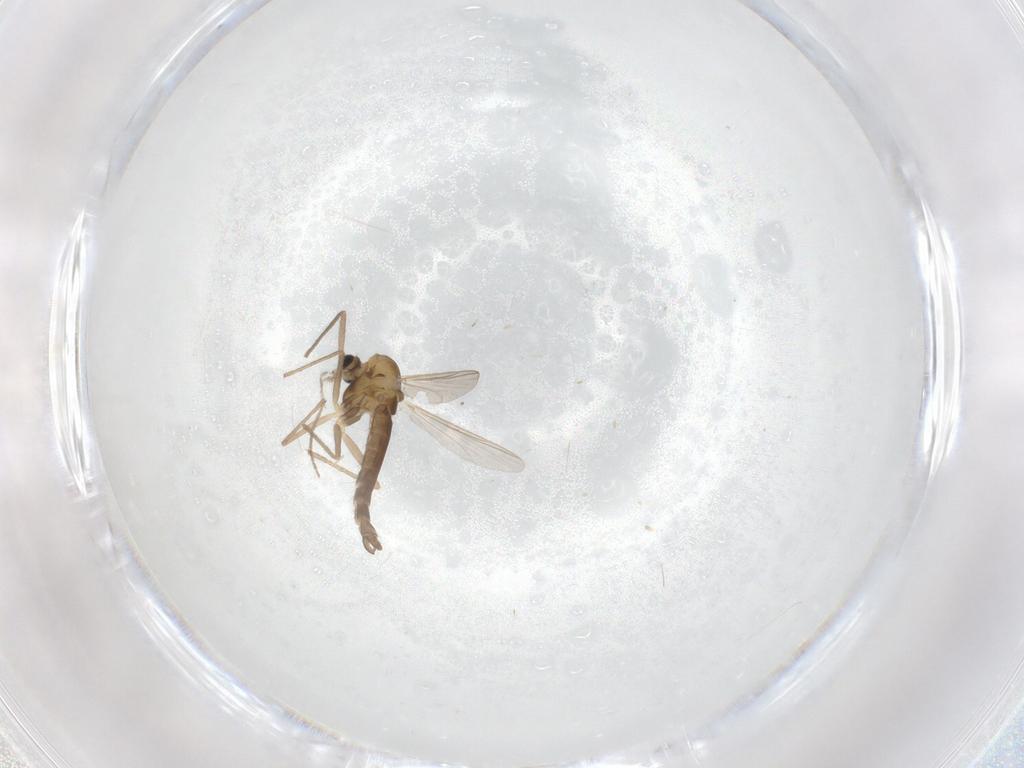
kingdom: Animalia
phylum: Arthropoda
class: Insecta
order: Diptera
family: Chironomidae
